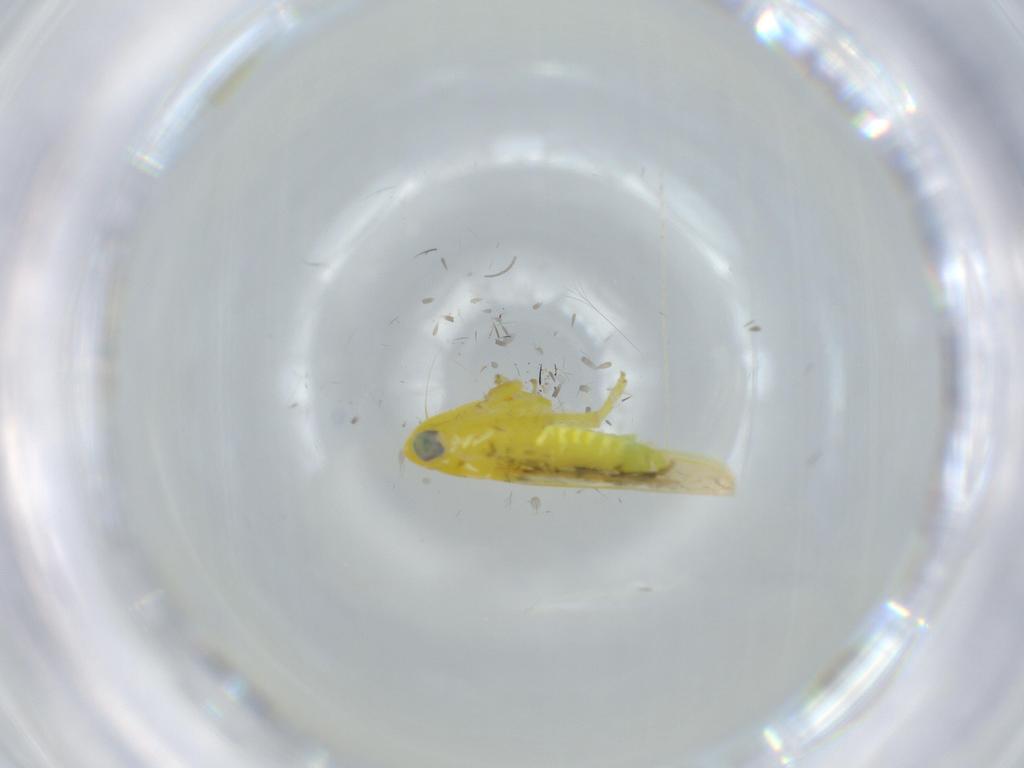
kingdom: Animalia
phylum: Arthropoda
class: Insecta
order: Hemiptera
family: Cicadellidae
